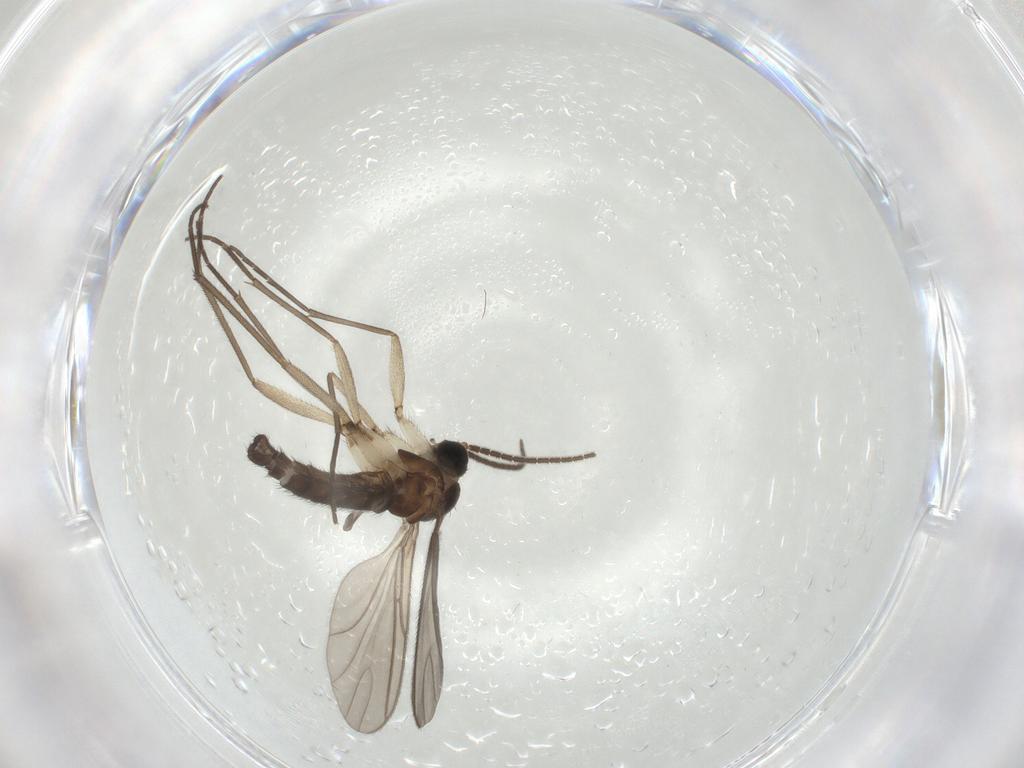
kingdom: Animalia
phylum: Arthropoda
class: Insecta
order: Diptera
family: Sciaridae
